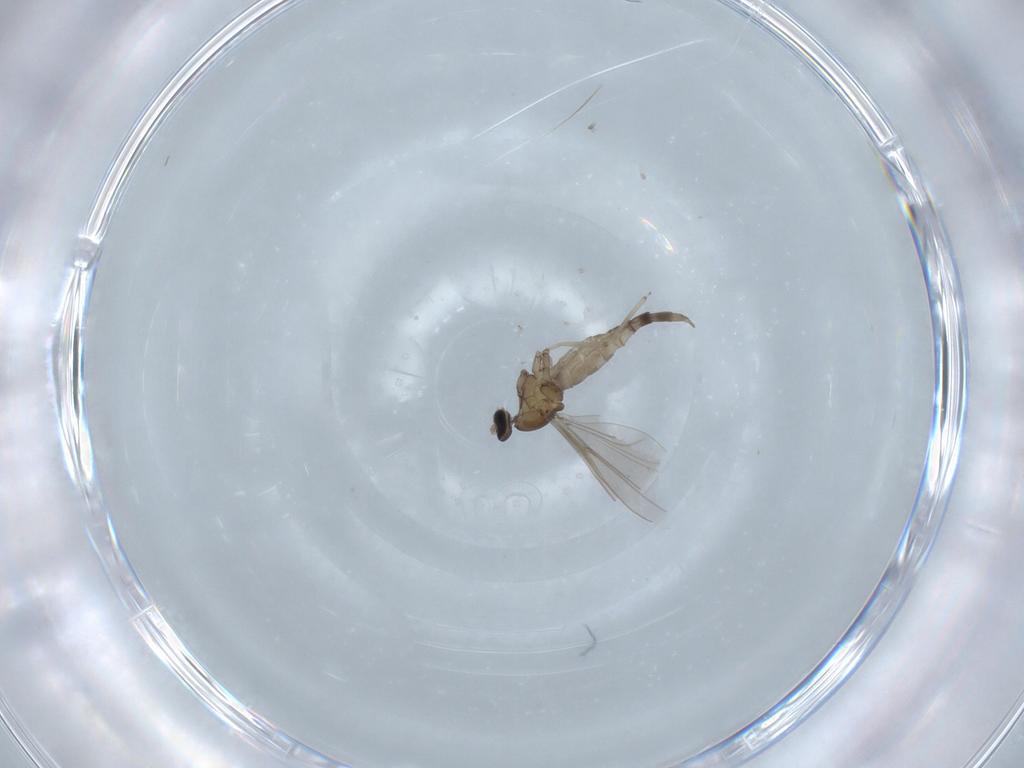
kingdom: Animalia
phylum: Arthropoda
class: Insecta
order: Diptera
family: Cecidomyiidae
